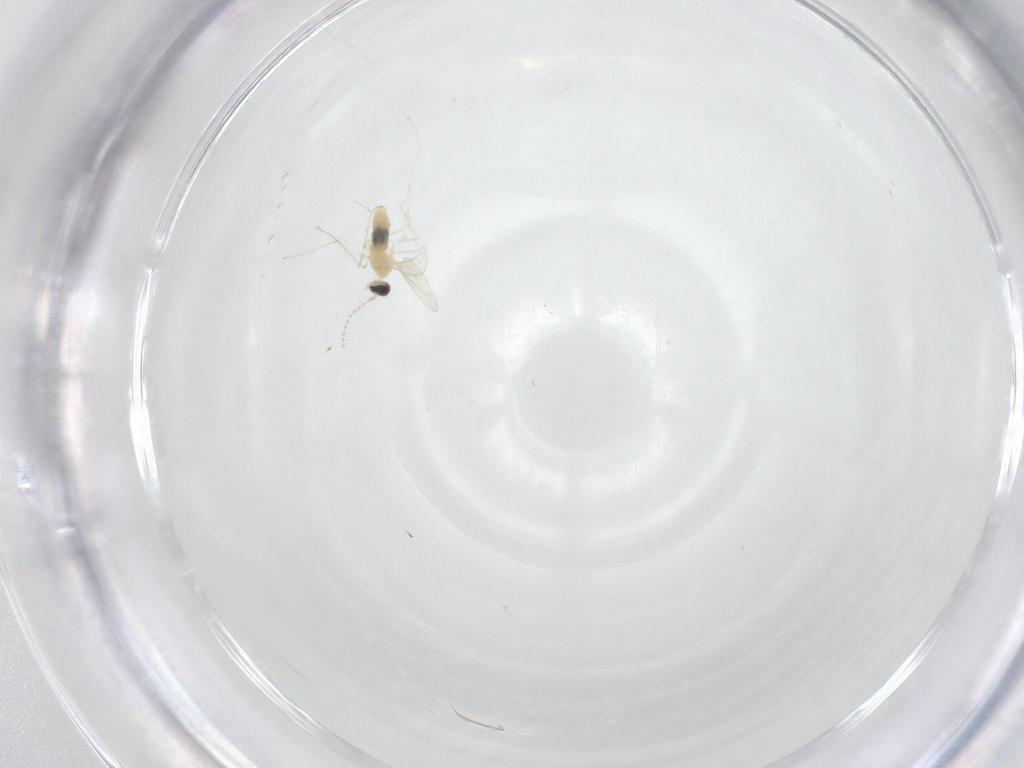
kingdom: Animalia
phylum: Arthropoda
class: Insecta
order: Diptera
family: Cecidomyiidae
